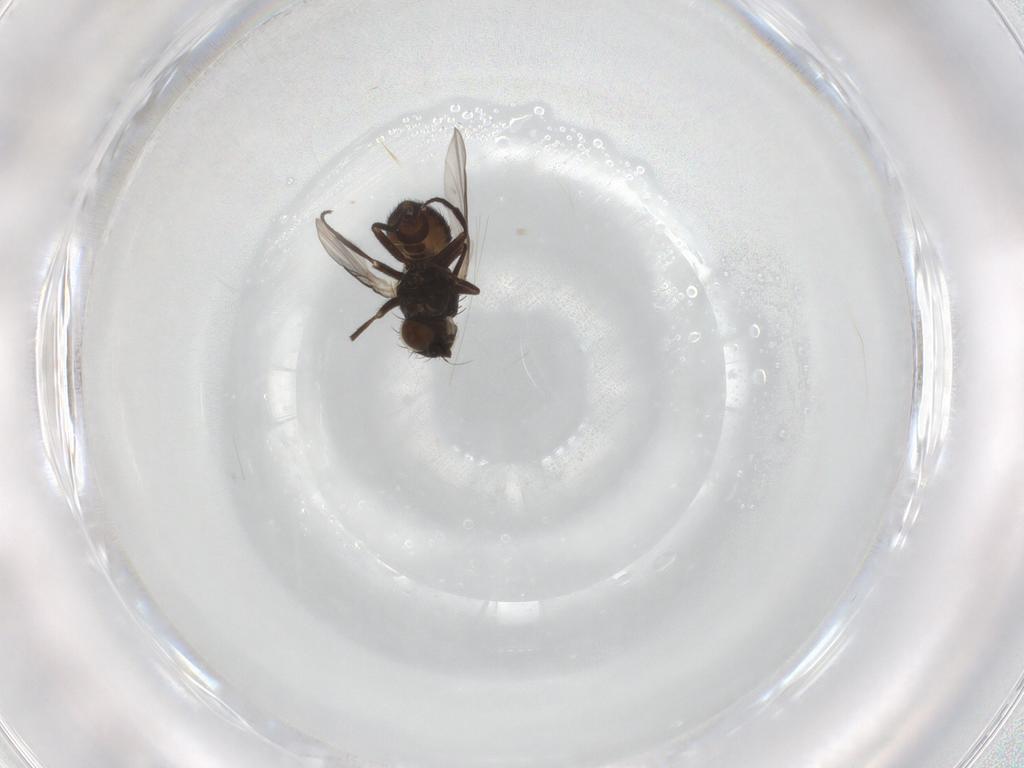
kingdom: Animalia
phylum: Arthropoda
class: Insecta
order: Diptera
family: Agromyzidae
